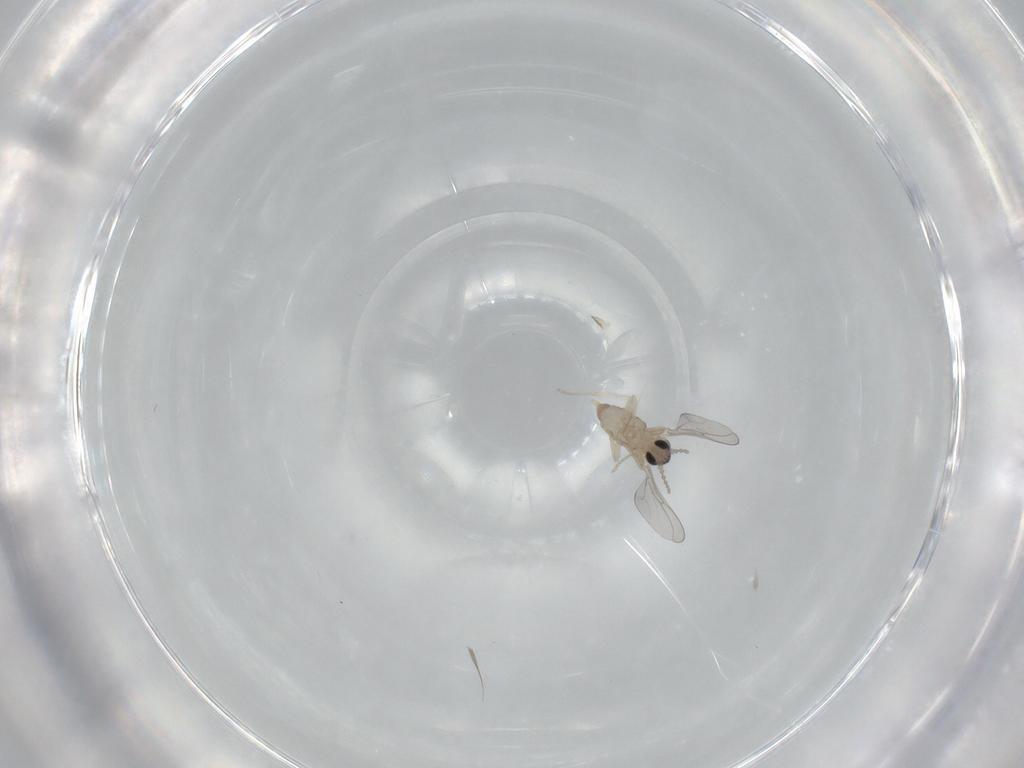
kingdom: Animalia
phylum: Arthropoda
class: Insecta
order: Diptera
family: Cecidomyiidae
